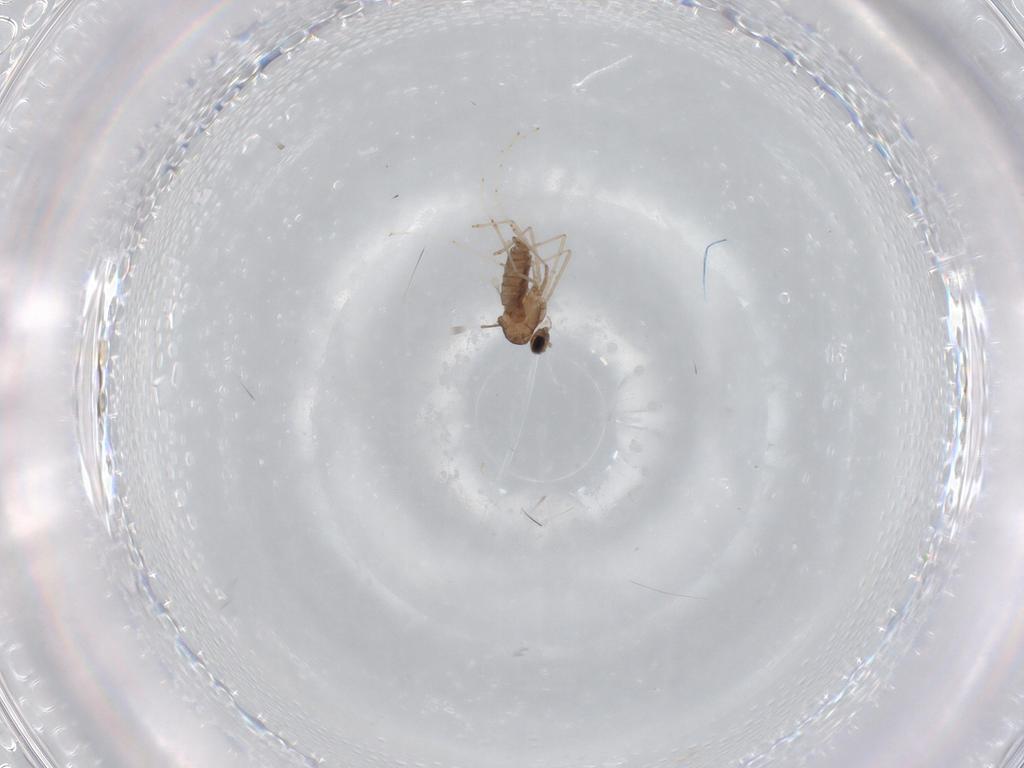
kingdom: Animalia
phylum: Arthropoda
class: Insecta
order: Diptera
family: Cecidomyiidae
